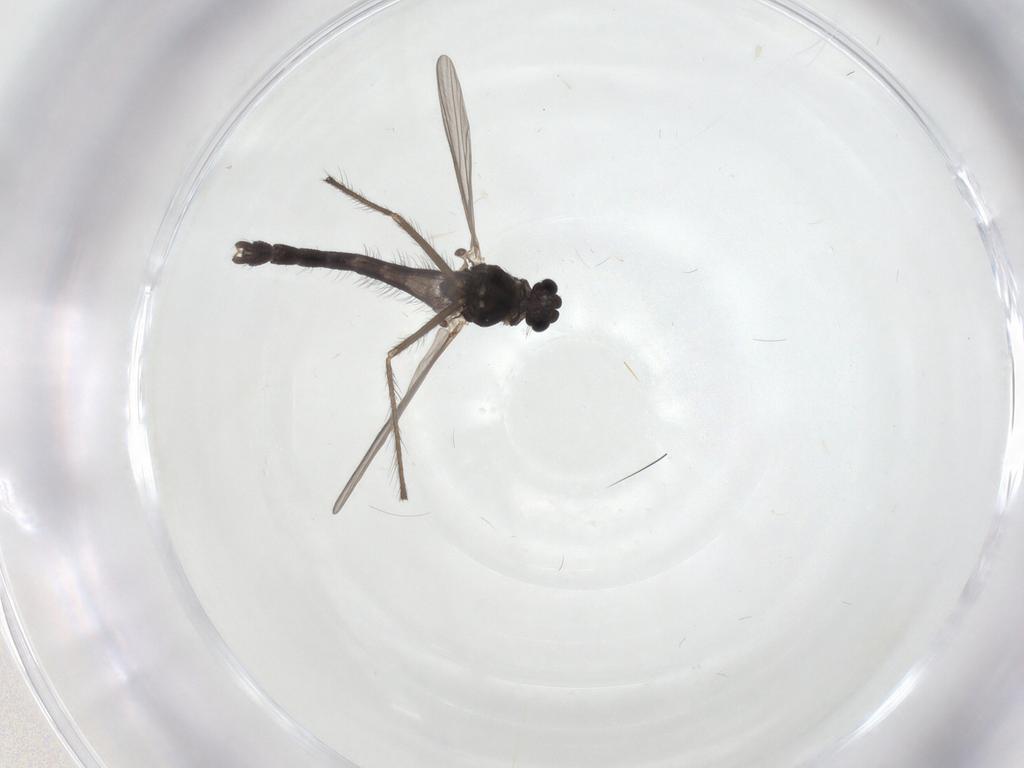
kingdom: Animalia
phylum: Arthropoda
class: Insecta
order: Diptera
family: Chironomidae
